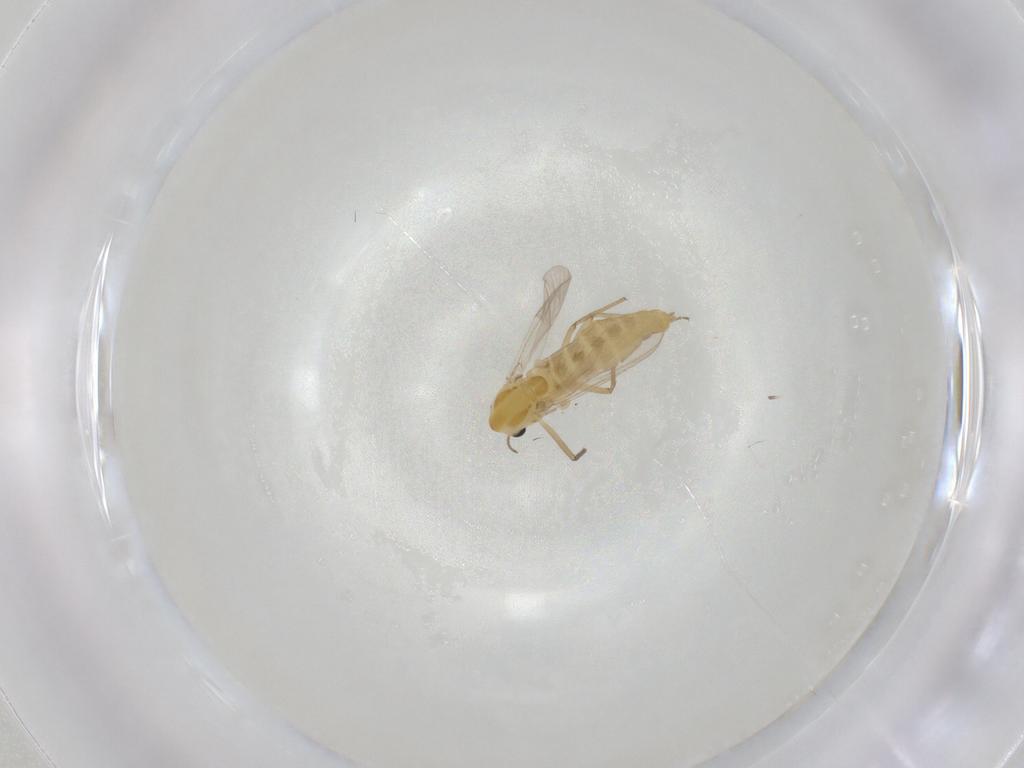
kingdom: Animalia
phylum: Arthropoda
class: Insecta
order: Diptera
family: Chironomidae
